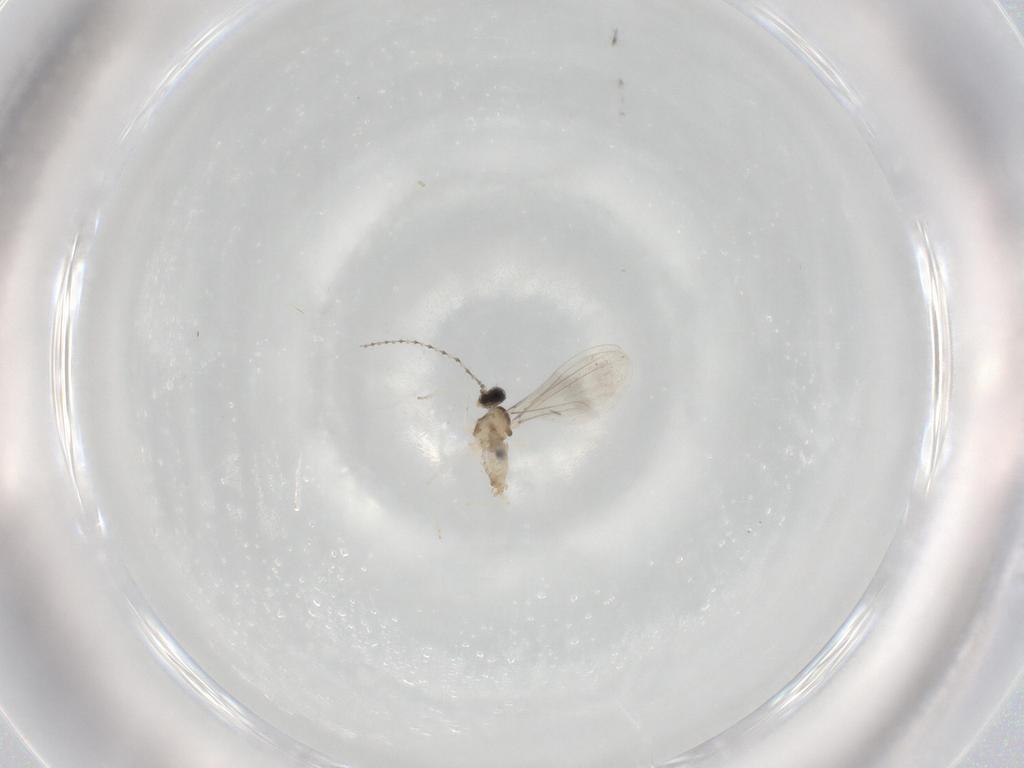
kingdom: Animalia
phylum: Arthropoda
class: Insecta
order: Diptera
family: Cecidomyiidae
